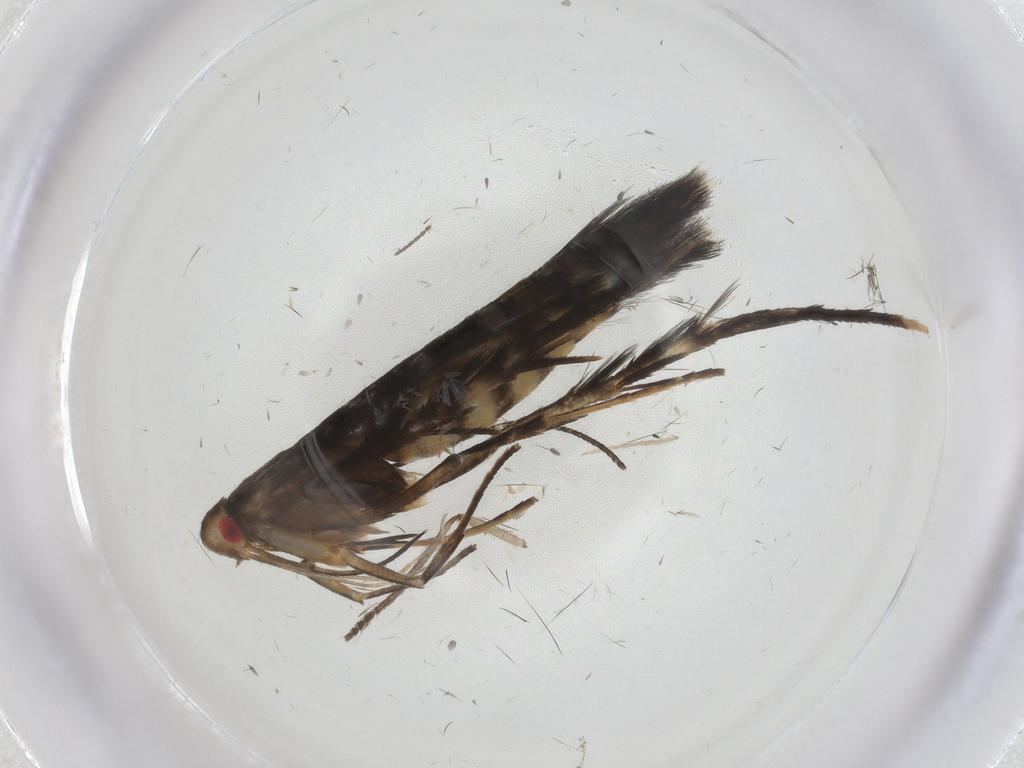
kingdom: Animalia
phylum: Arthropoda
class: Insecta
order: Lepidoptera
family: Cosmopterigidae
